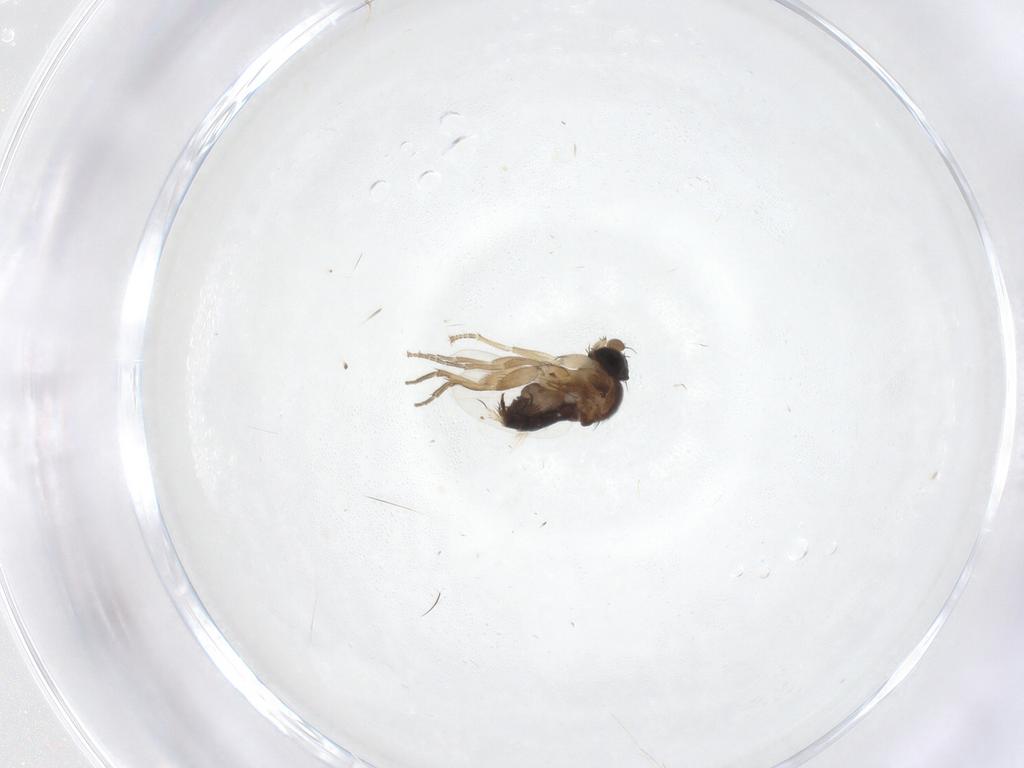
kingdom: Animalia
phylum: Arthropoda
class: Insecta
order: Diptera
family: Phoridae
